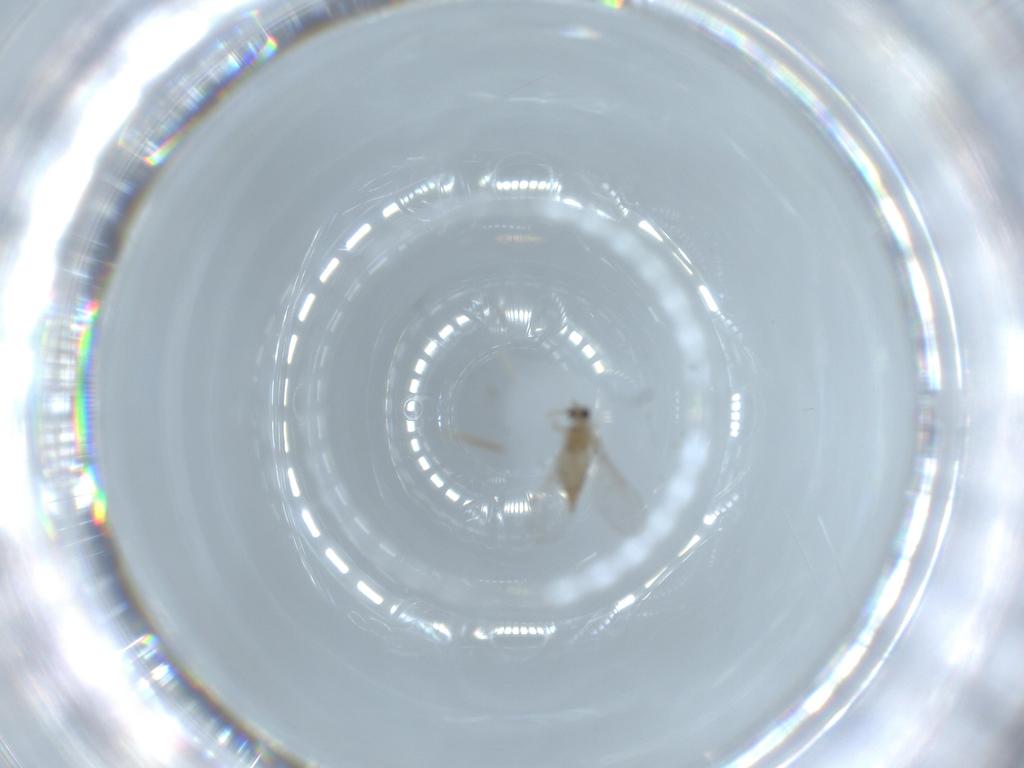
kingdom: Animalia
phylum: Arthropoda
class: Insecta
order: Diptera
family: Cecidomyiidae
